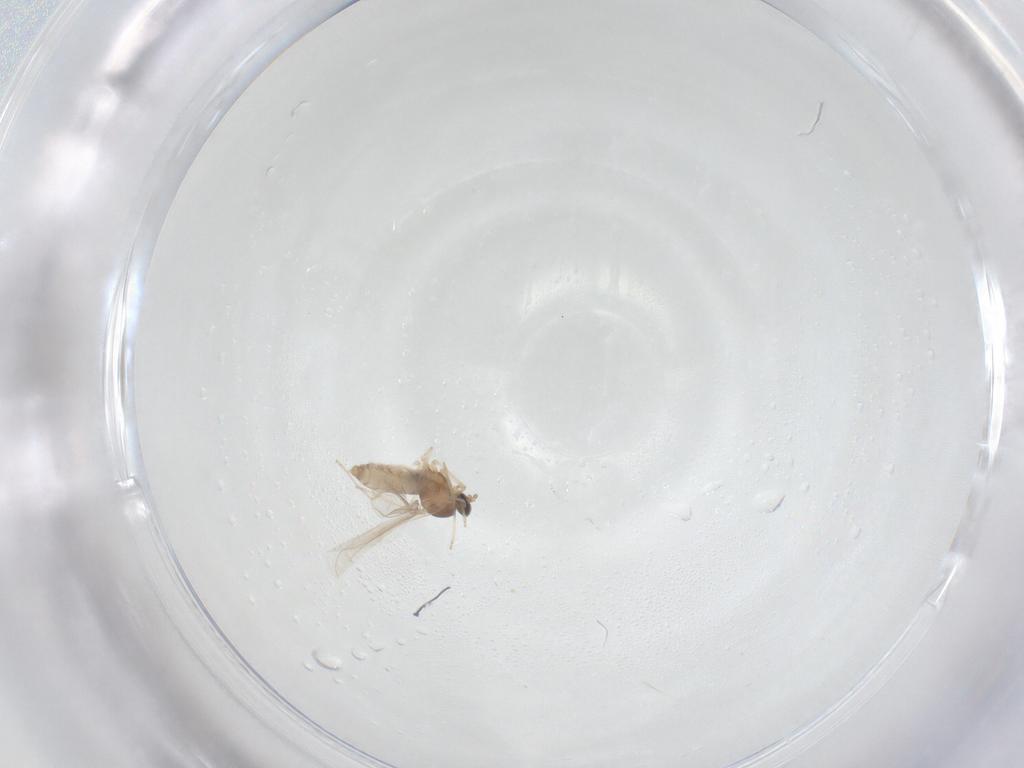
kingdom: Animalia
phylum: Arthropoda
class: Insecta
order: Diptera
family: Cecidomyiidae
